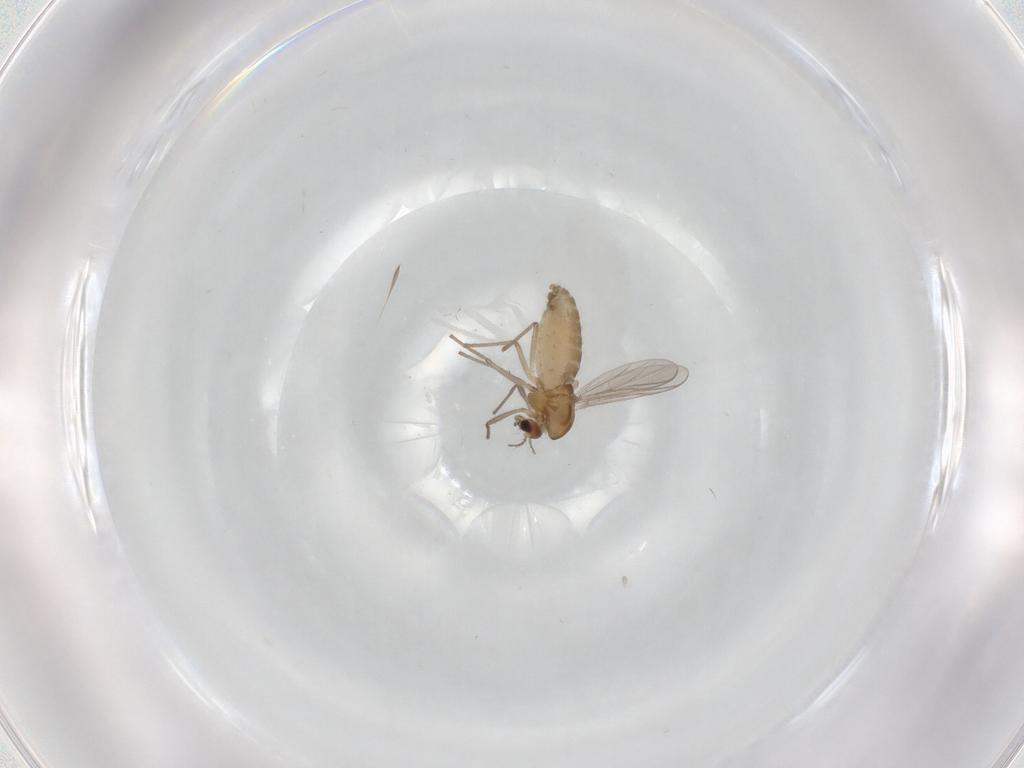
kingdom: Animalia
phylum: Arthropoda
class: Insecta
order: Diptera
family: Chironomidae
